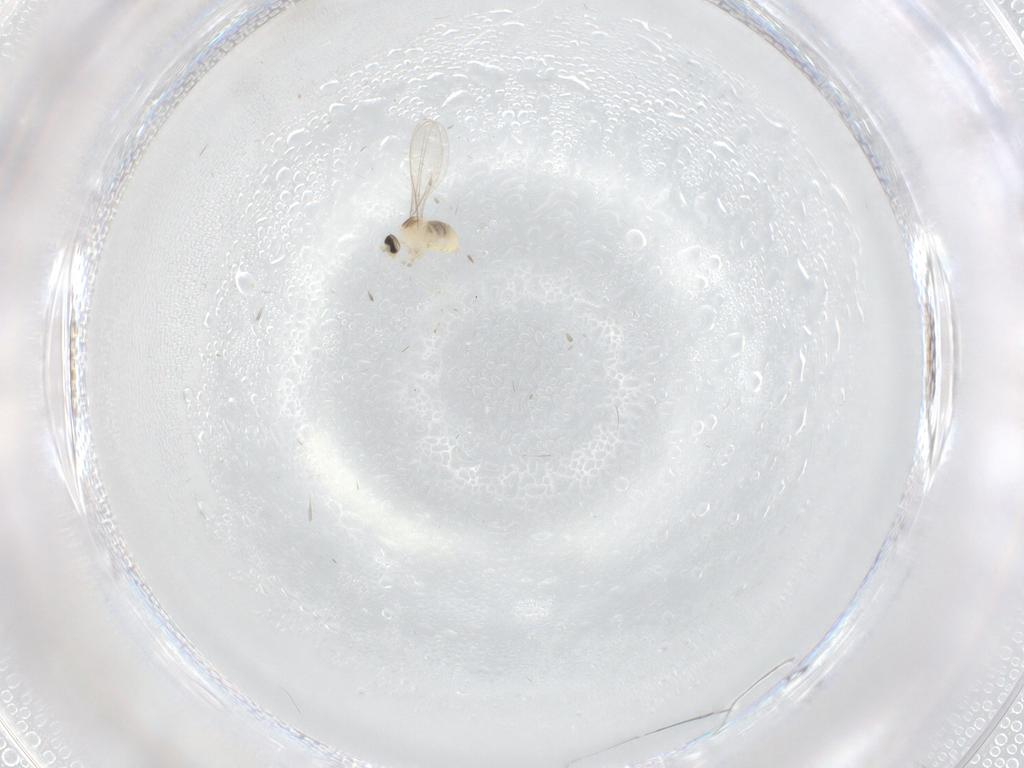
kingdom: Animalia
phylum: Arthropoda
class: Insecta
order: Diptera
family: Cecidomyiidae
